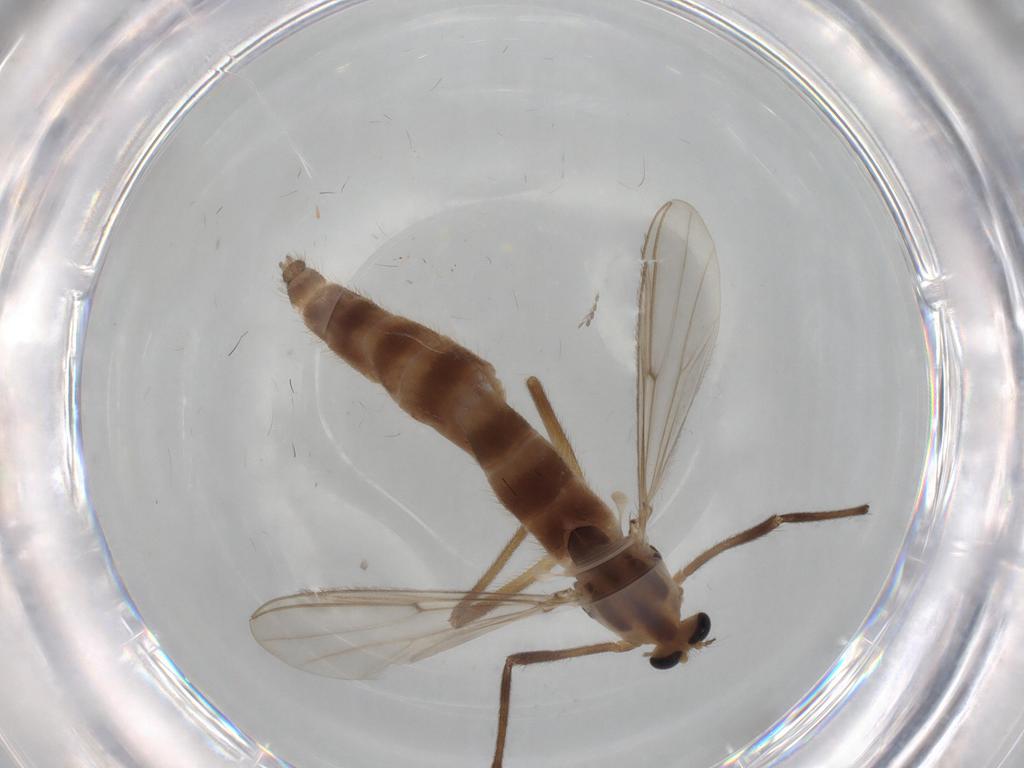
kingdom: Animalia
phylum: Arthropoda
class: Insecta
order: Diptera
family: Chironomidae
